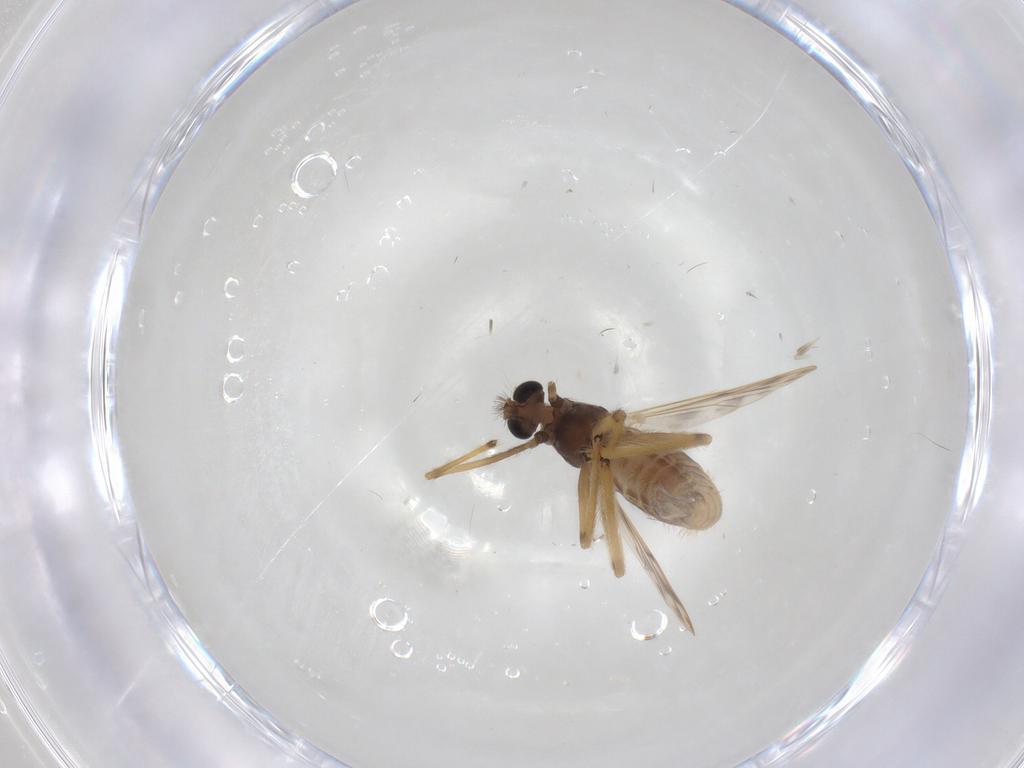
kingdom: Animalia
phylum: Arthropoda
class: Insecta
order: Diptera
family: Chironomidae
